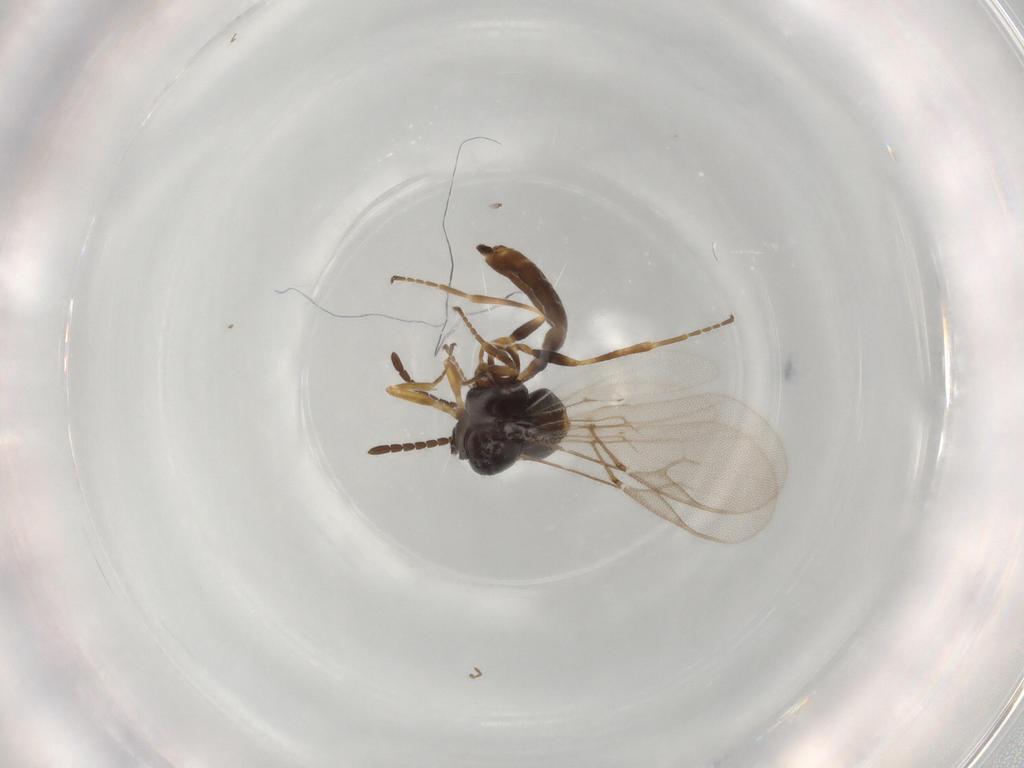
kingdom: Animalia
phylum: Arthropoda
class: Insecta
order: Hymenoptera
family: Braconidae
